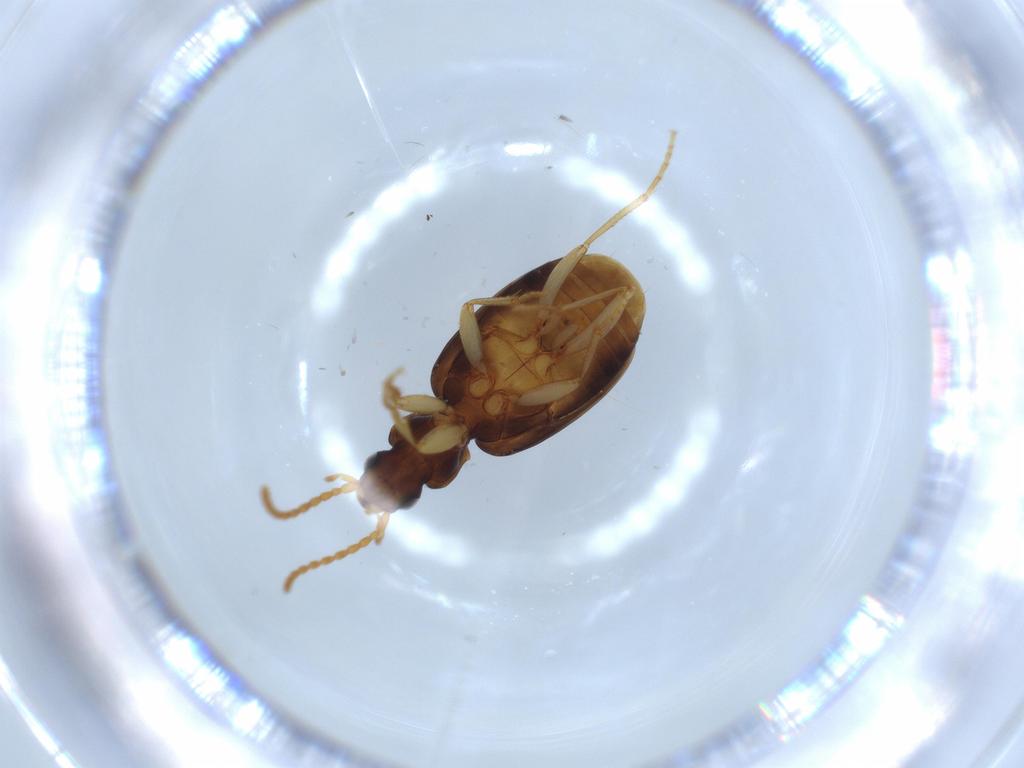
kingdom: Animalia
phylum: Arthropoda
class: Insecta
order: Coleoptera
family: Carabidae
